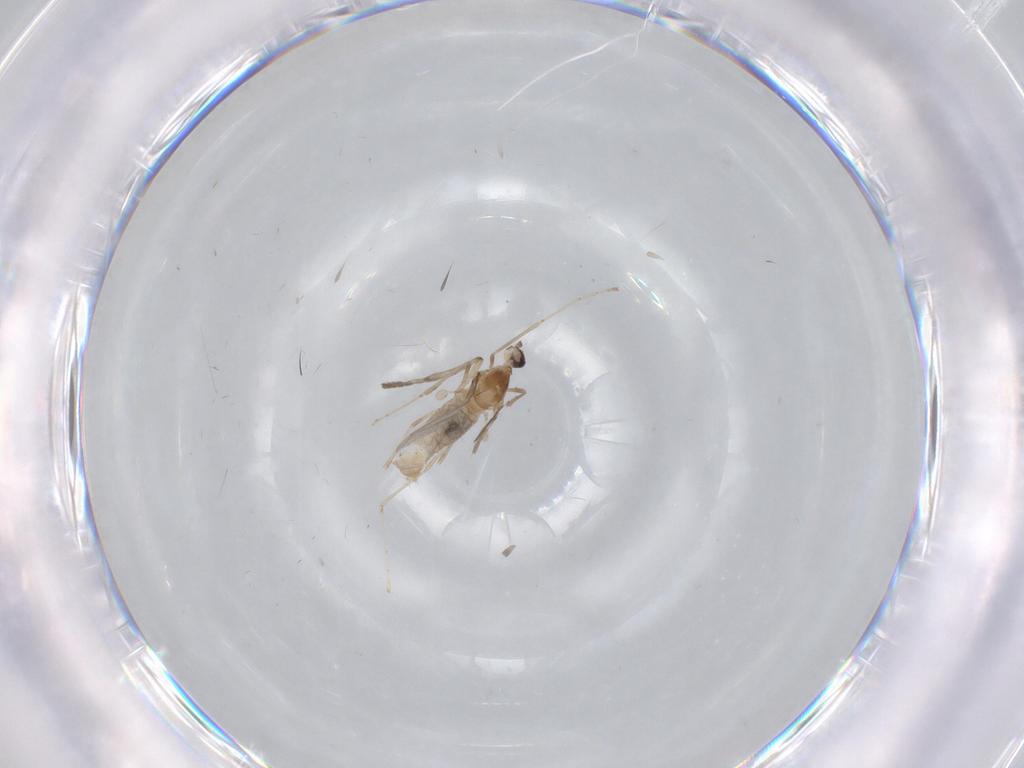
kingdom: Animalia
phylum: Arthropoda
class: Insecta
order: Diptera
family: Cecidomyiidae
